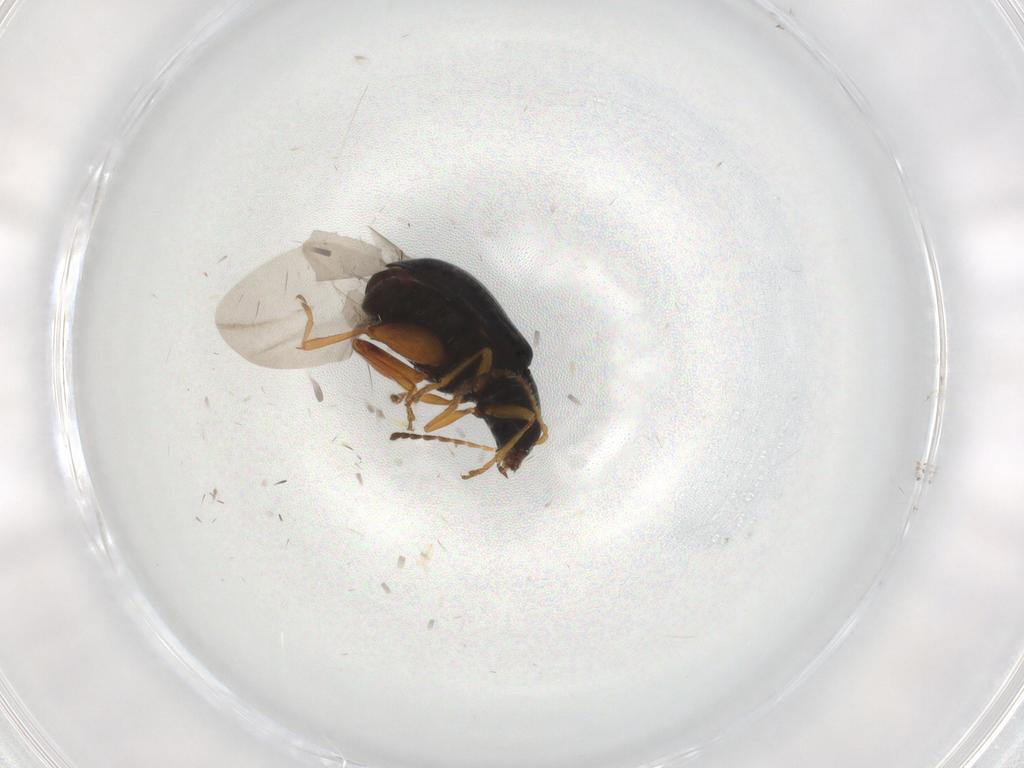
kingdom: Animalia
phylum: Arthropoda
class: Insecta
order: Coleoptera
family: Chrysomelidae
